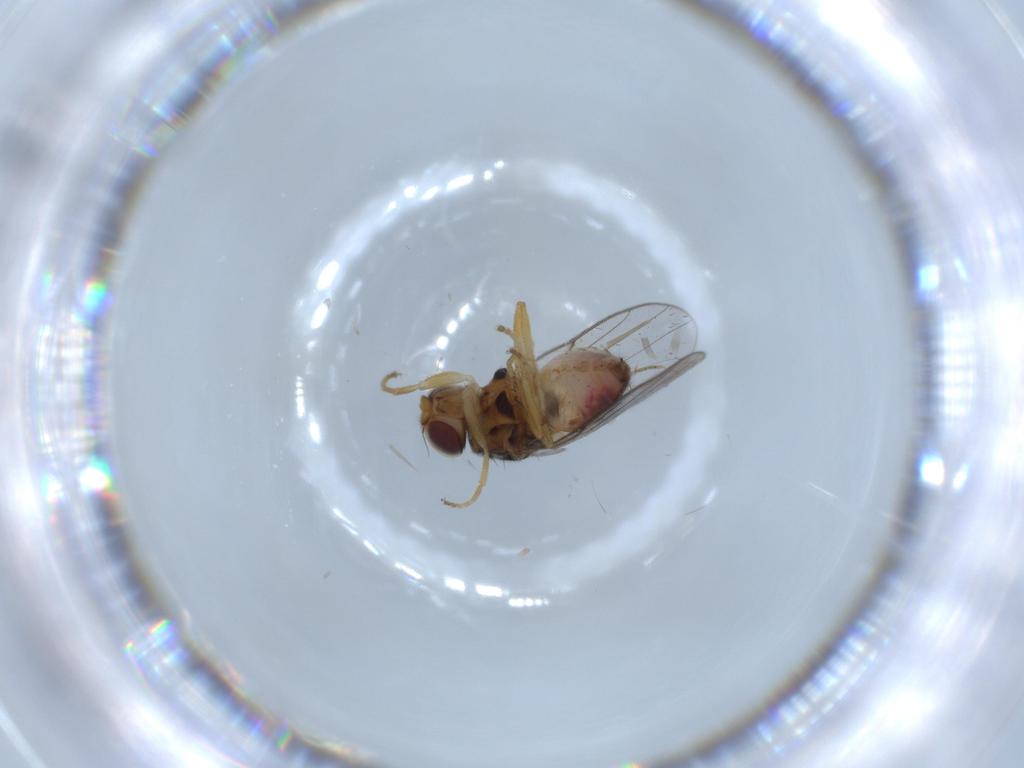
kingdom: Animalia
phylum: Arthropoda
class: Insecta
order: Diptera
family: Chloropidae
